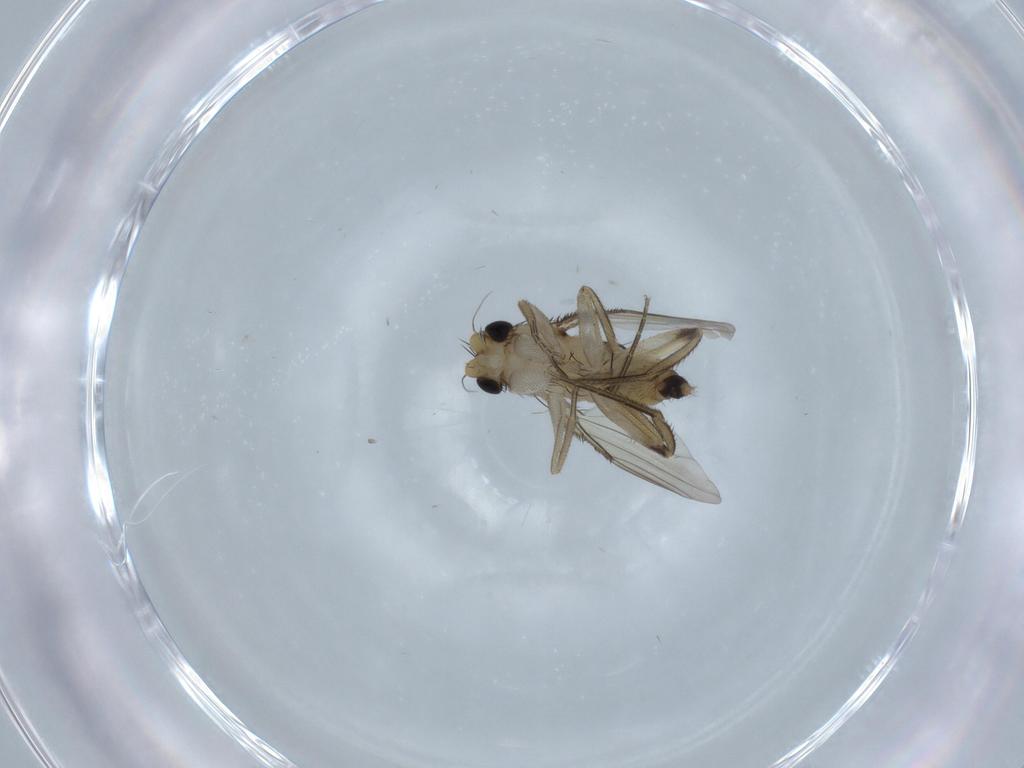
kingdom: Animalia
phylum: Arthropoda
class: Insecta
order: Diptera
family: Phoridae
